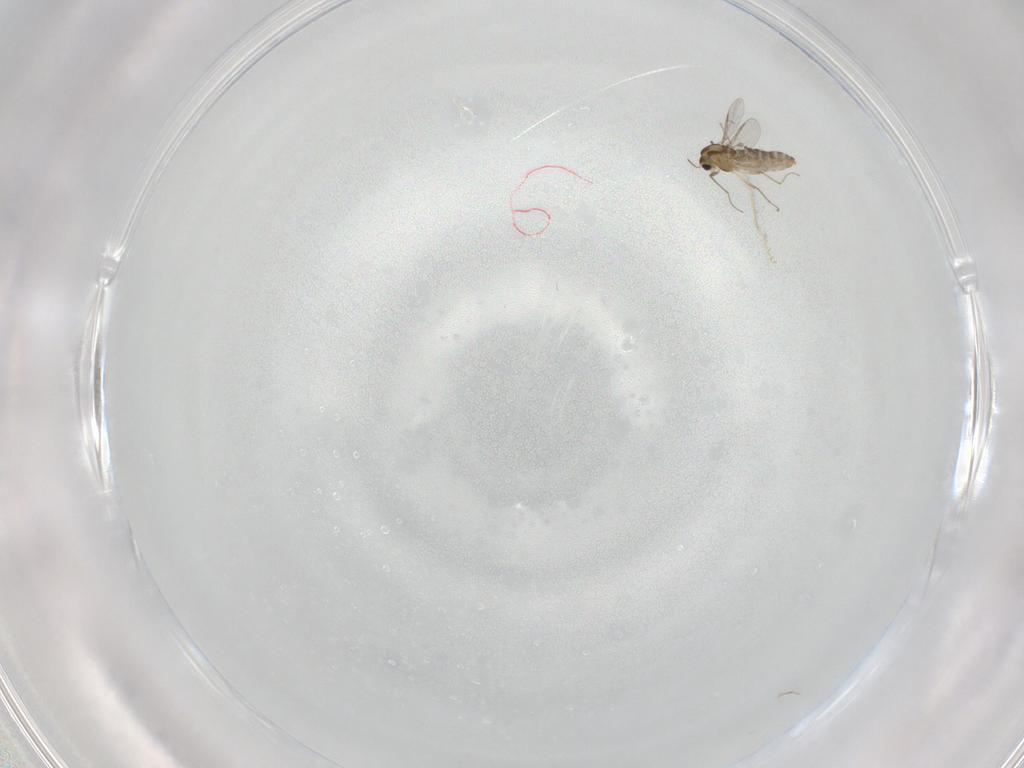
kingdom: Animalia
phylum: Arthropoda
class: Insecta
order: Diptera
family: Chironomidae
